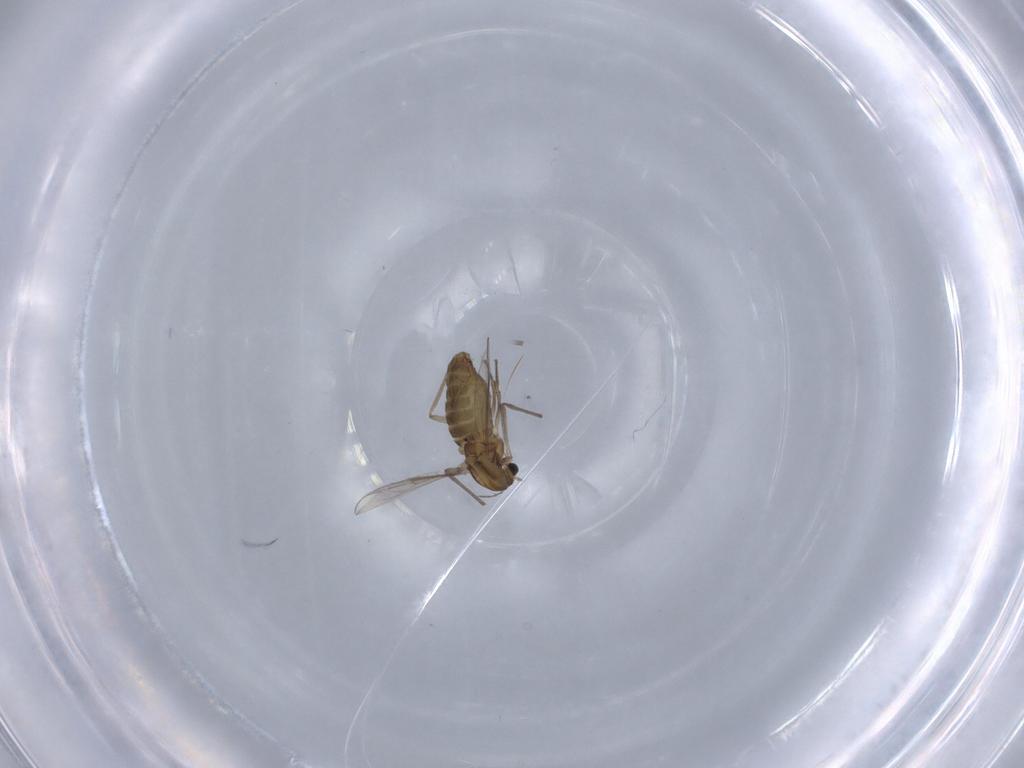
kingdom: Animalia
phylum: Arthropoda
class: Insecta
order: Diptera
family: Chironomidae
